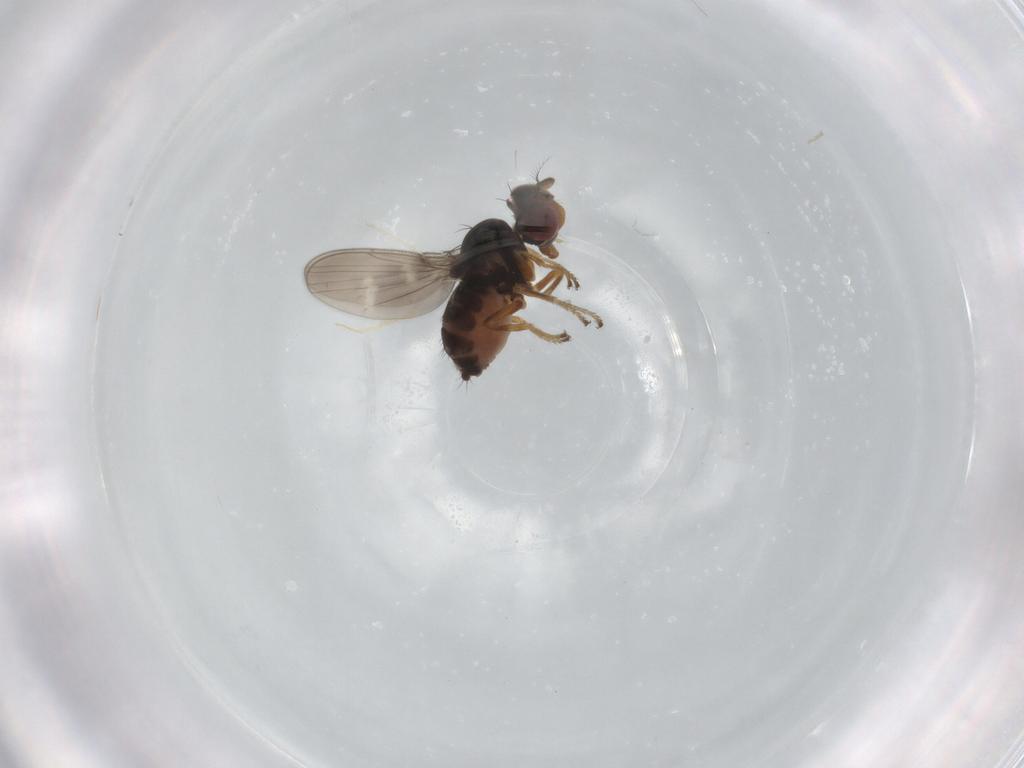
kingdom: Animalia
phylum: Arthropoda
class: Insecta
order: Diptera
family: Ephydridae
